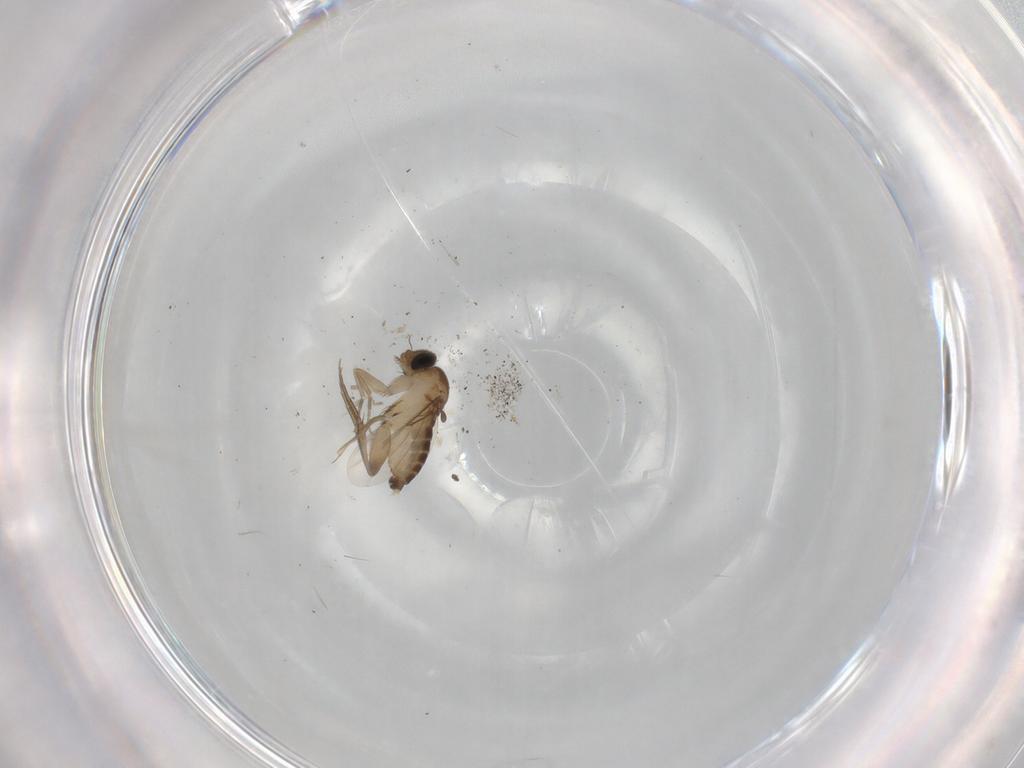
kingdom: Animalia
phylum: Arthropoda
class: Insecta
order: Diptera
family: Phoridae
